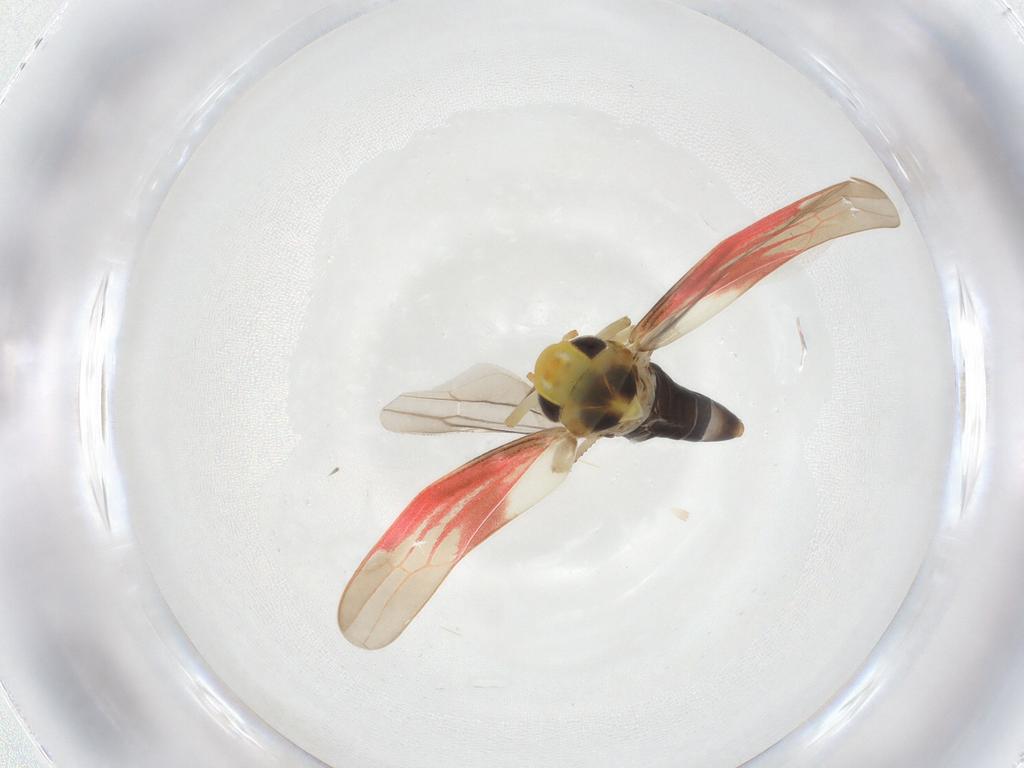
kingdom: Animalia
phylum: Arthropoda
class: Insecta
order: Hemiptera
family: Cicadellidae
